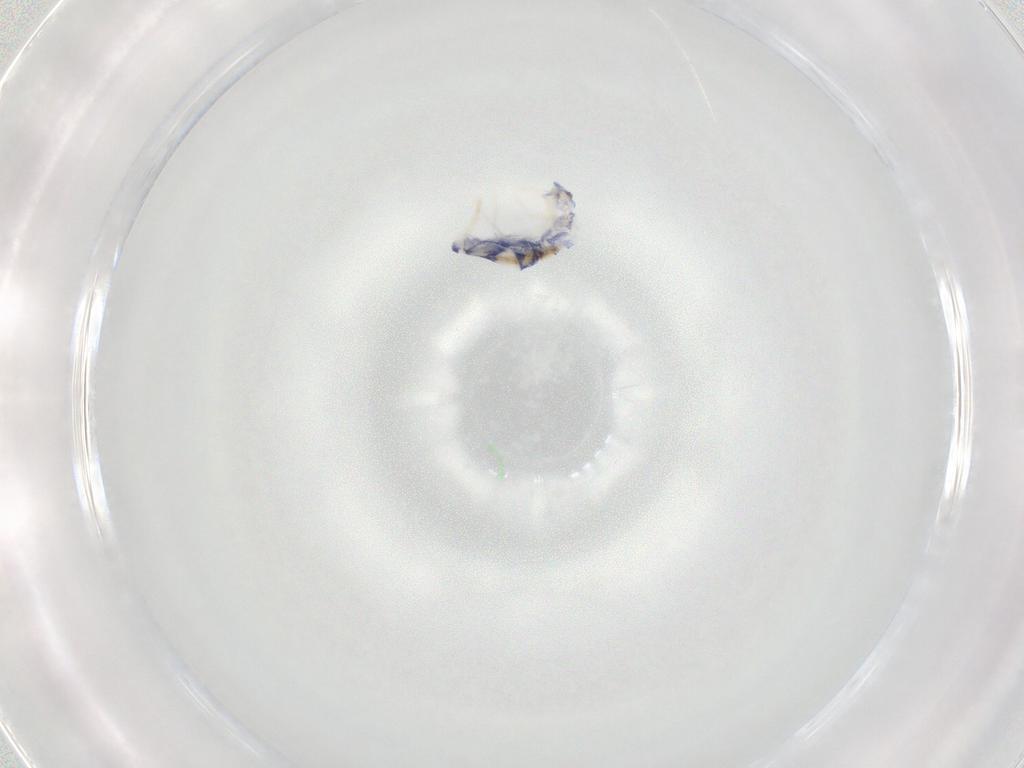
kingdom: Animalia
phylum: Arthropoda
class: Collembola
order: Entomobryomorpha
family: Entomobryidae
